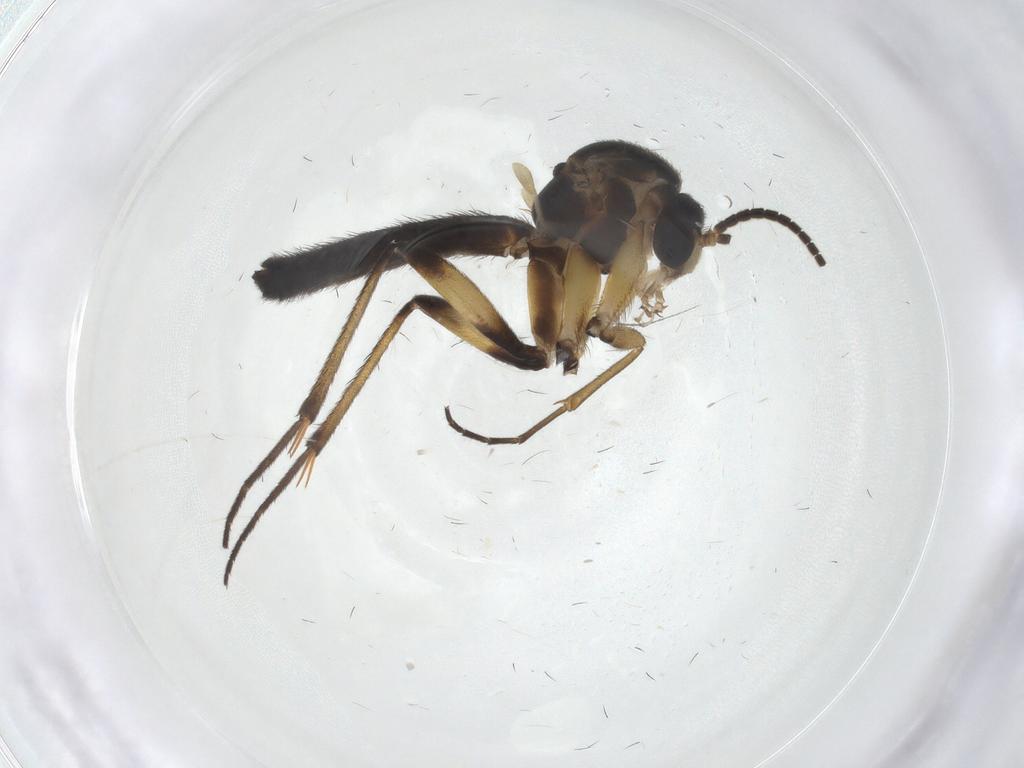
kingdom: Animalia
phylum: Arthropoda
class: Insecta
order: Diptera
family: Mycetophilidae
